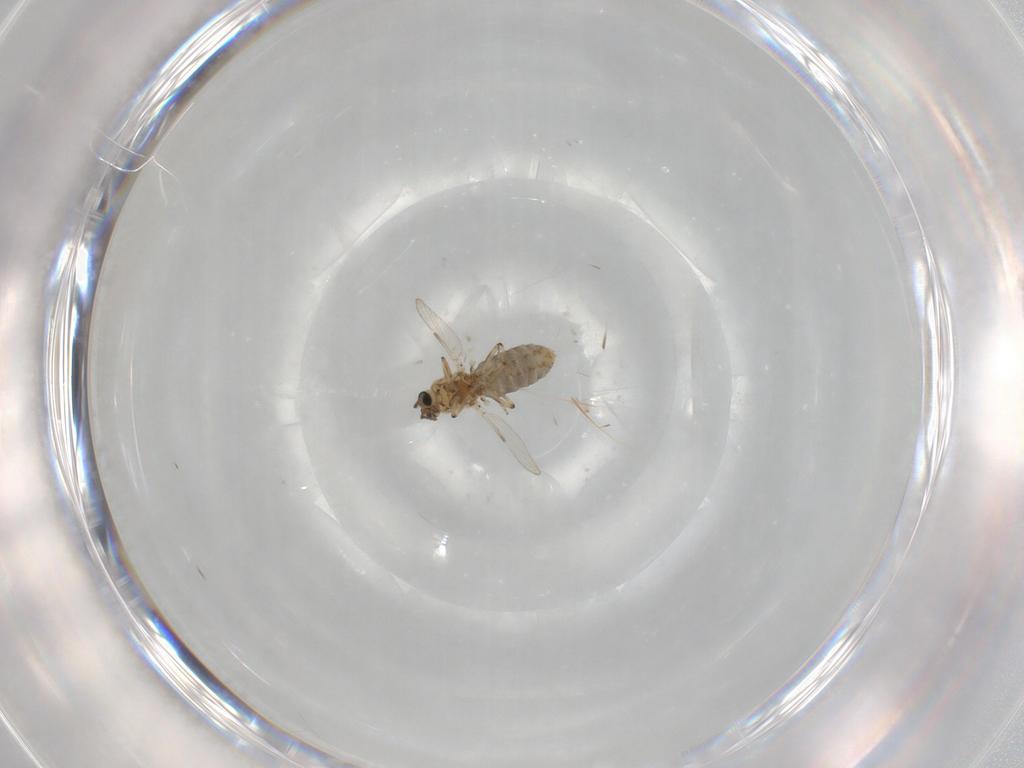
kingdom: Animalia
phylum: Arthropoda
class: Insecta
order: Diptera
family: Ceratopogonidae
